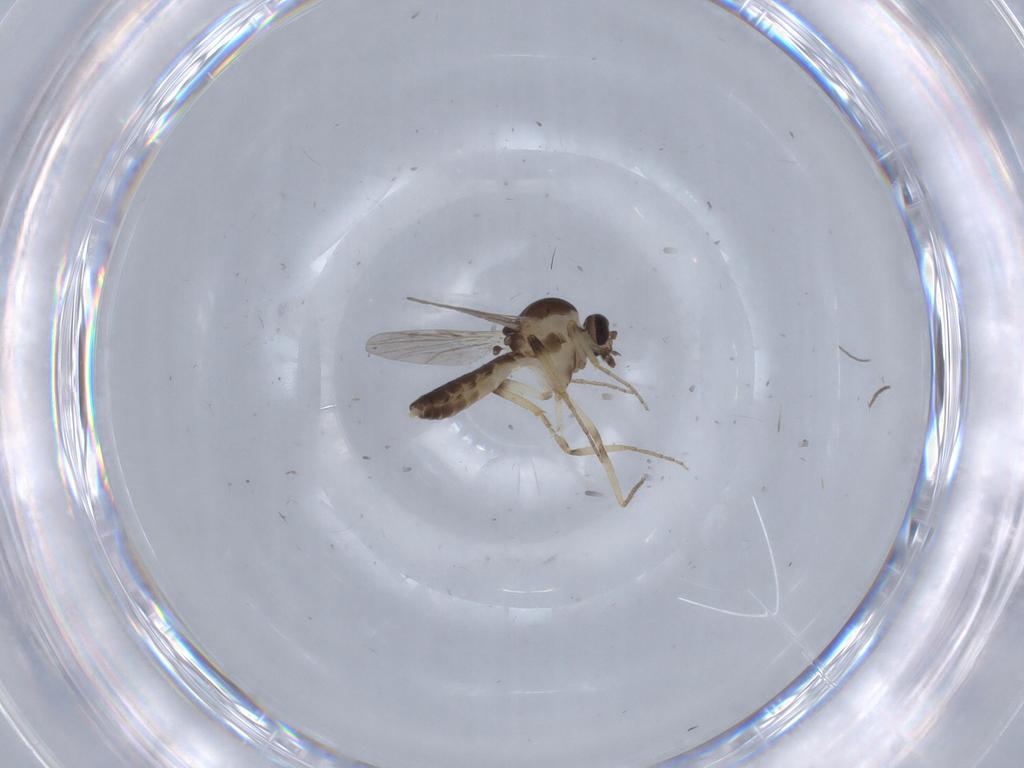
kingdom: Animalia
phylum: Arthropoda
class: Insecta
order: Diptera
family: Ceratopogonidae
